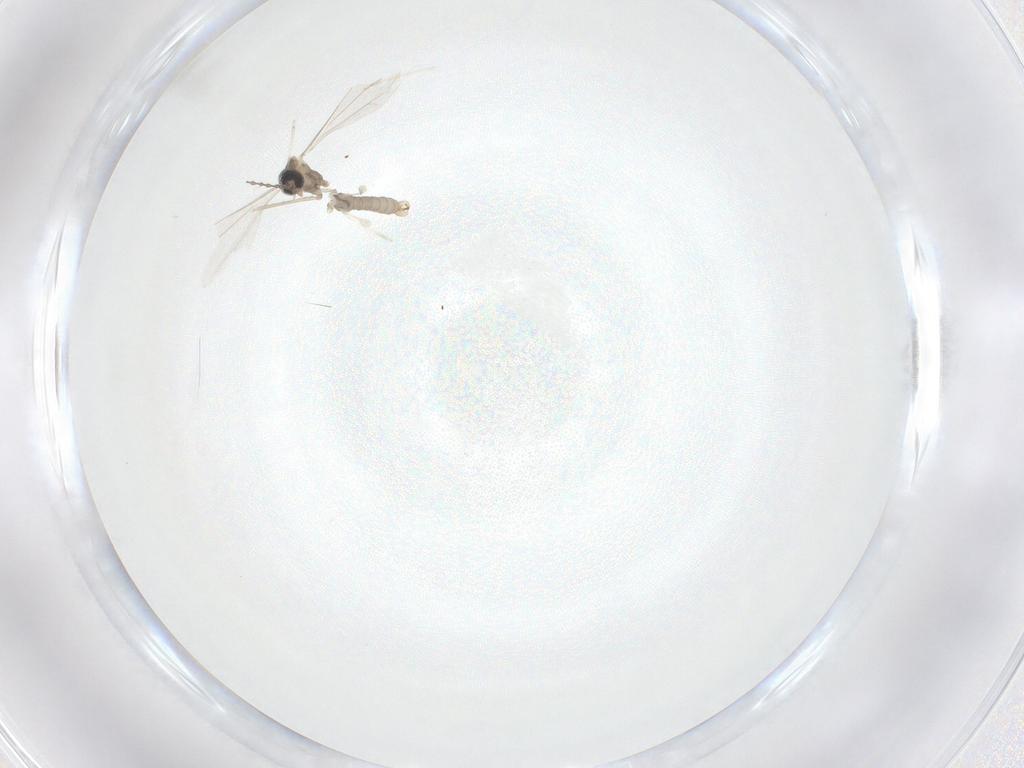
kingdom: Animalia
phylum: Arthropoda
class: Insecta
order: Diptera
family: Cecidomyiidae
